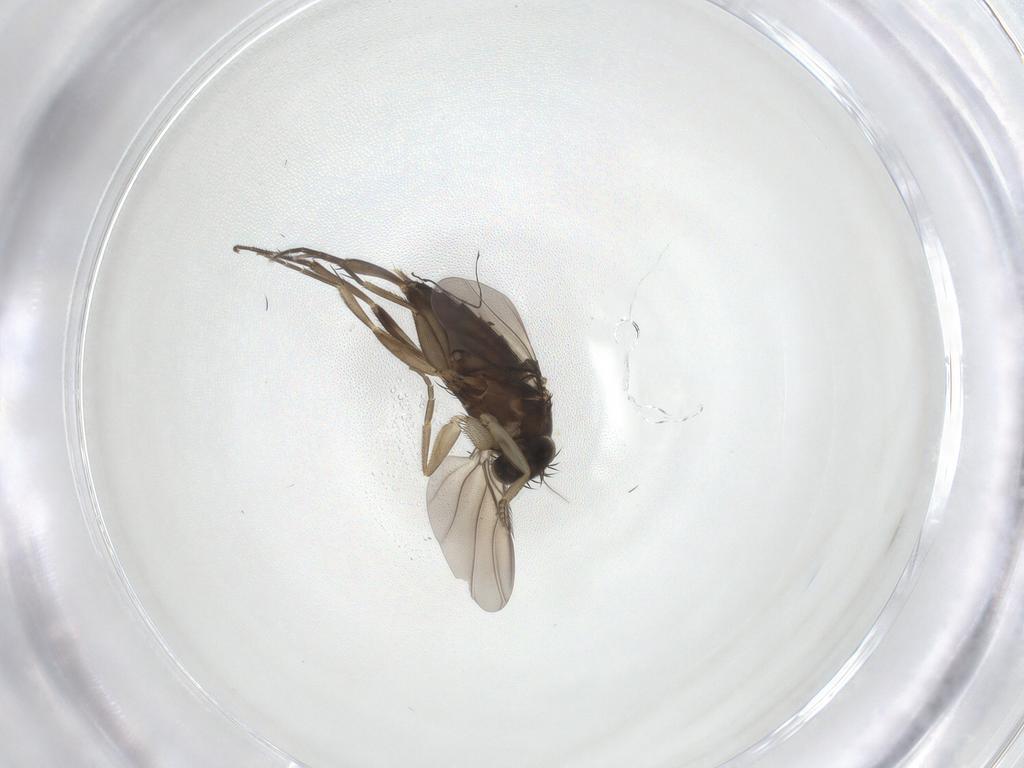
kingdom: Animalia
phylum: Arthropoda
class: Insecta
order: Diptera
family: Phoridae
